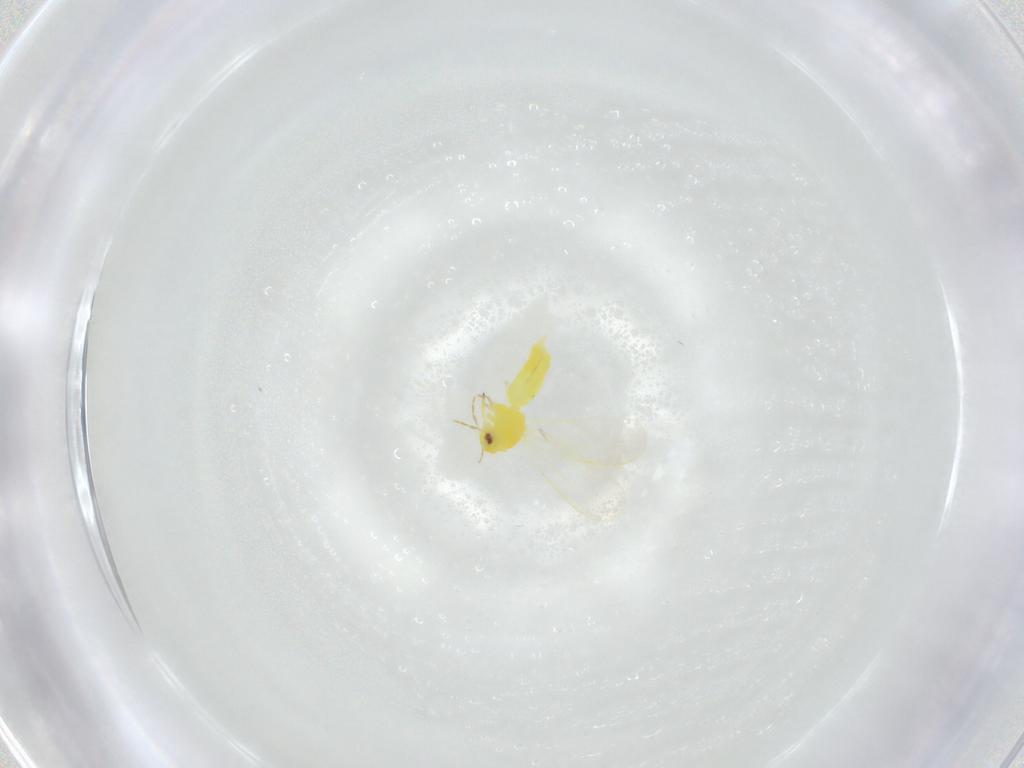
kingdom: Animalia
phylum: Arthropoda
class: Insecta
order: Hemiptera
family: Aleyrodidae
